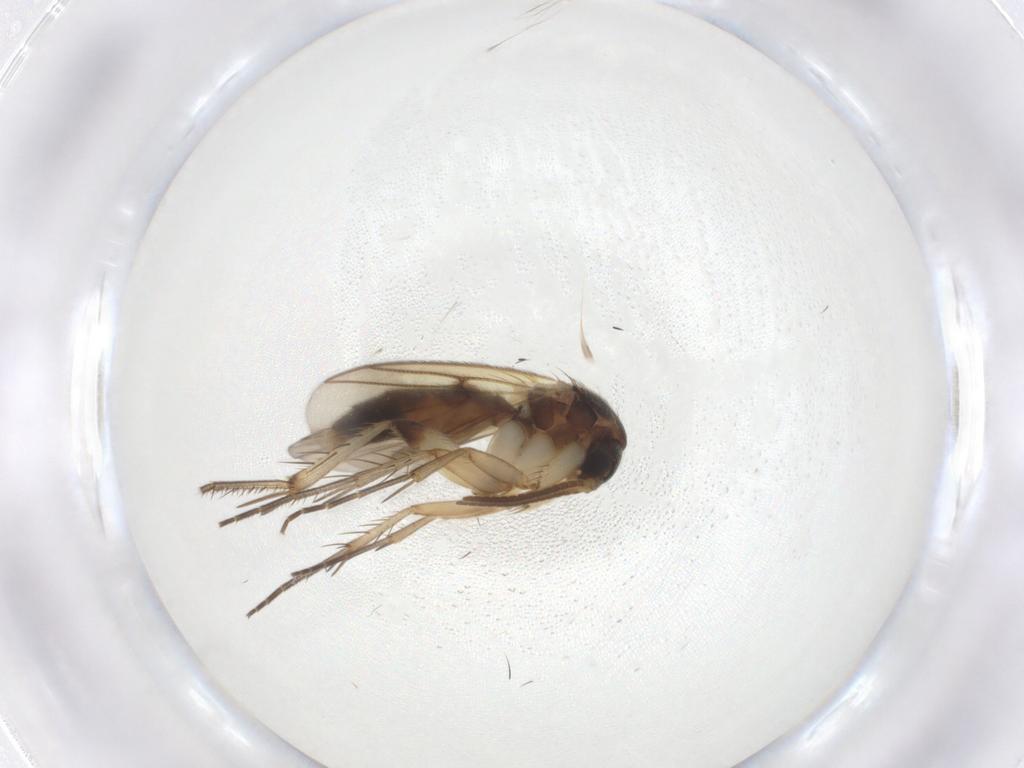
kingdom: Animalia
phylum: Arthropoda
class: Insecta
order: Diptera
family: Mycetophilidae
